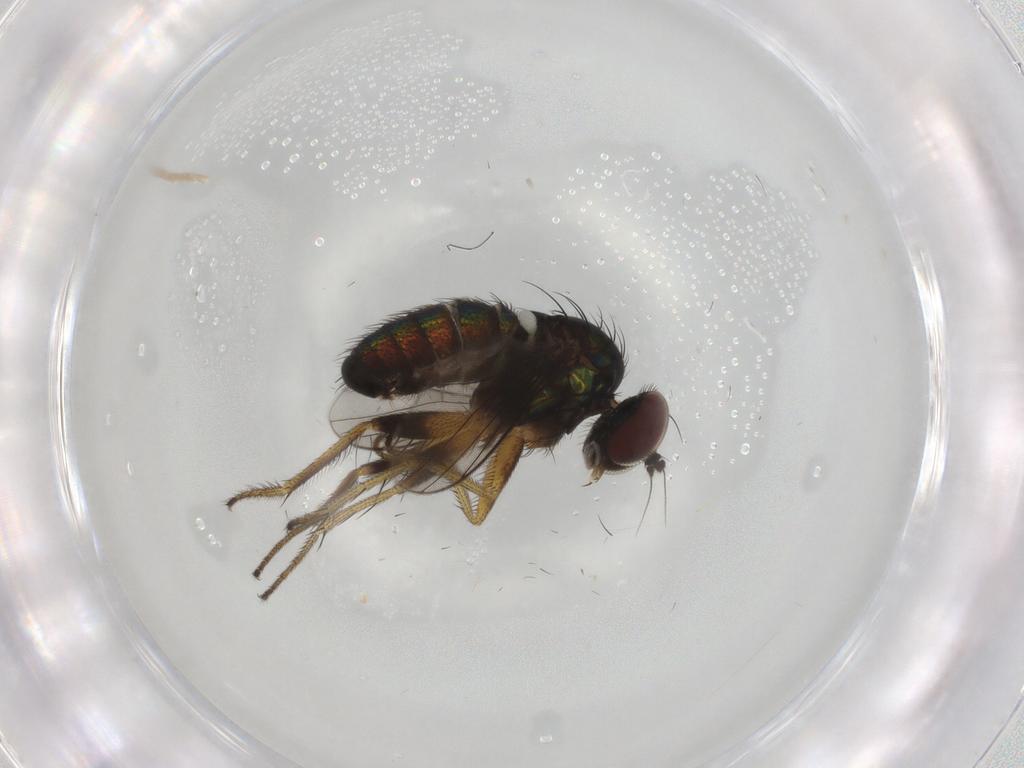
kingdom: Animalia
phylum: Arthropoda
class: Insecta
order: Diptera
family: Dolichopodidae
